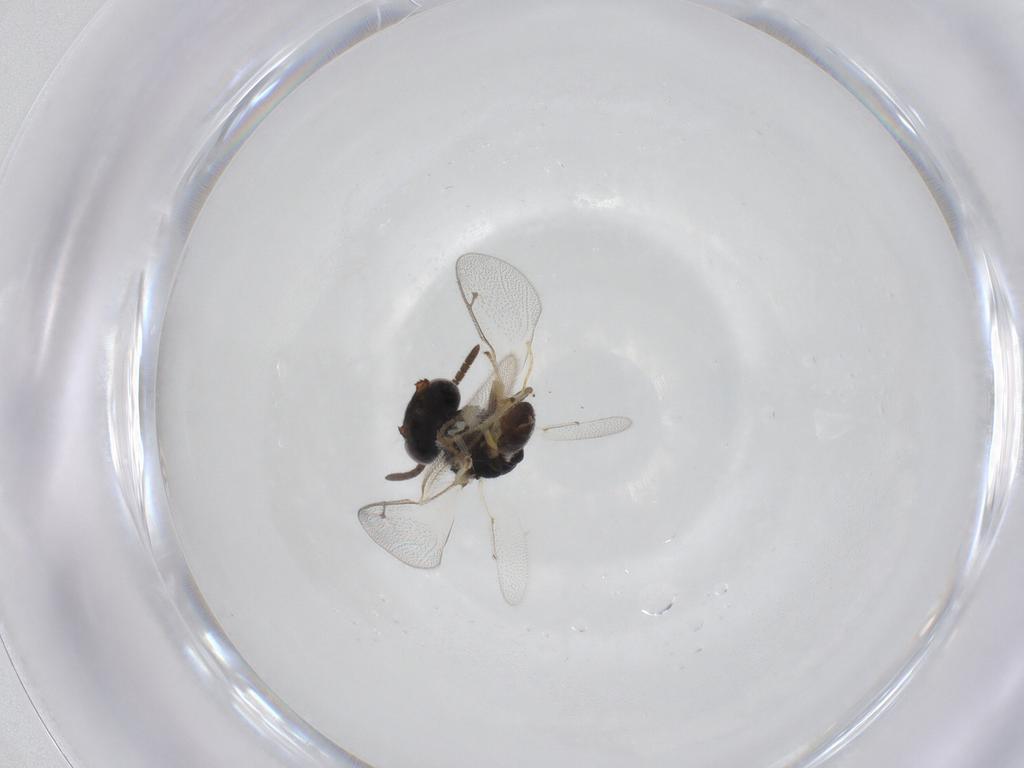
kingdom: Animalia
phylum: Arthropoda
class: Insecta
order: Hymenoptera
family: Pteromalidae
